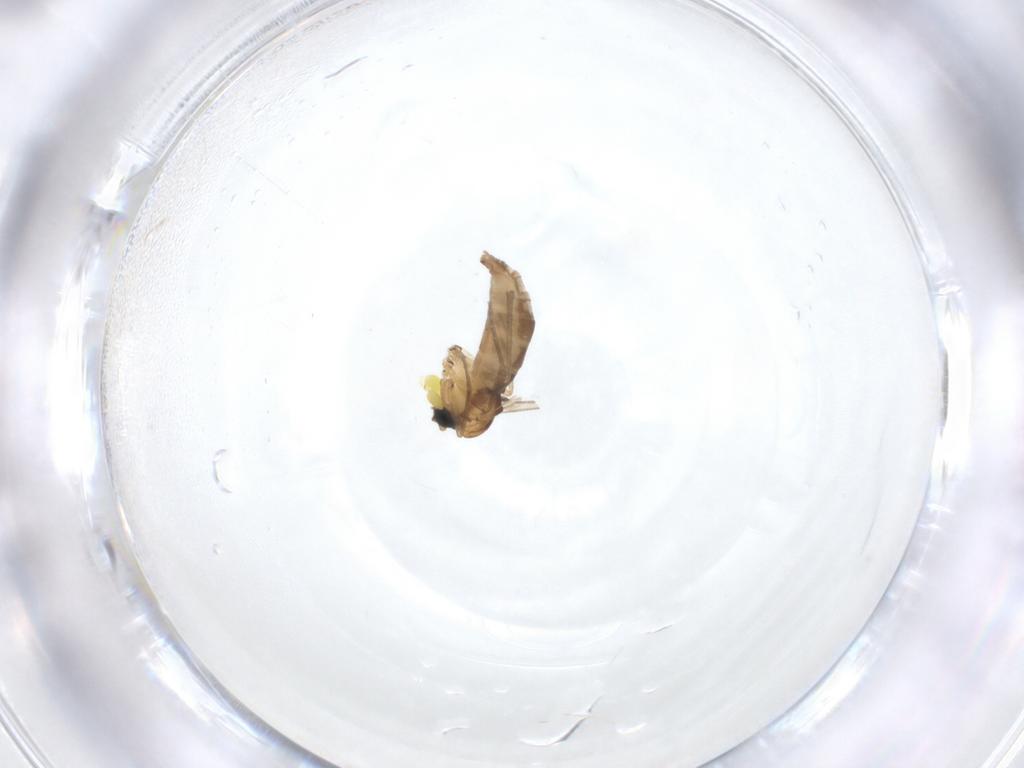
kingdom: Animalia
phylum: Arthropoda
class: Insecta
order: Diptera
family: Sciaridae
